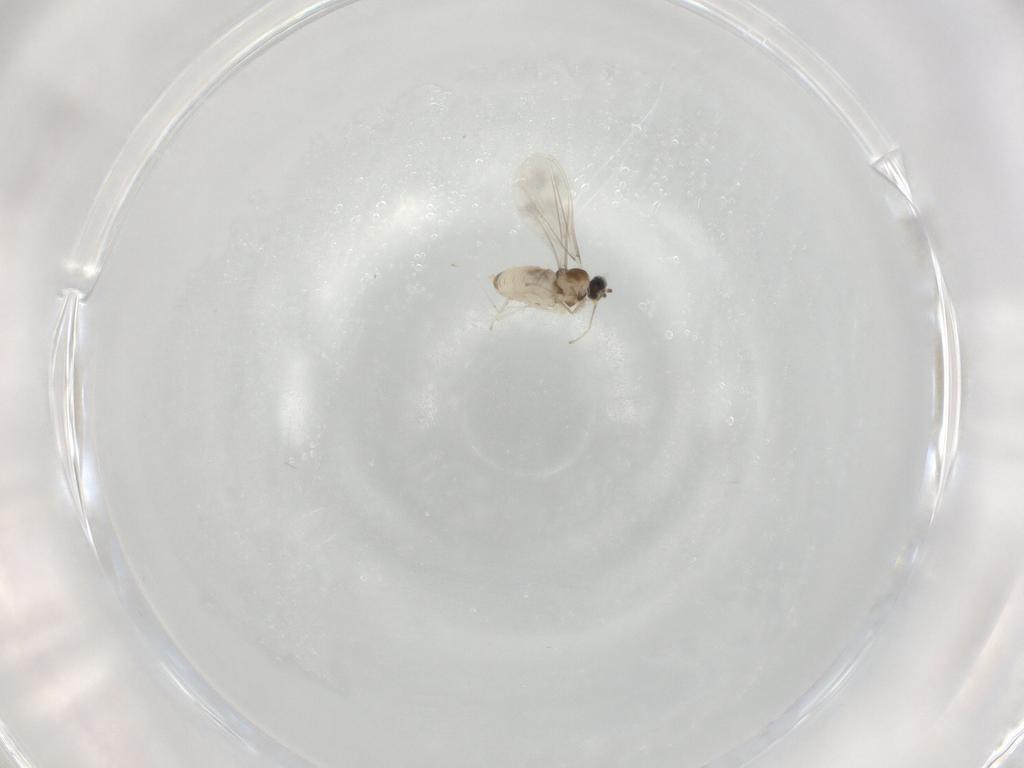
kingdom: Animalia
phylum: Arthropoda
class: Insecta
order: Diptera
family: Cecidomyiidae
